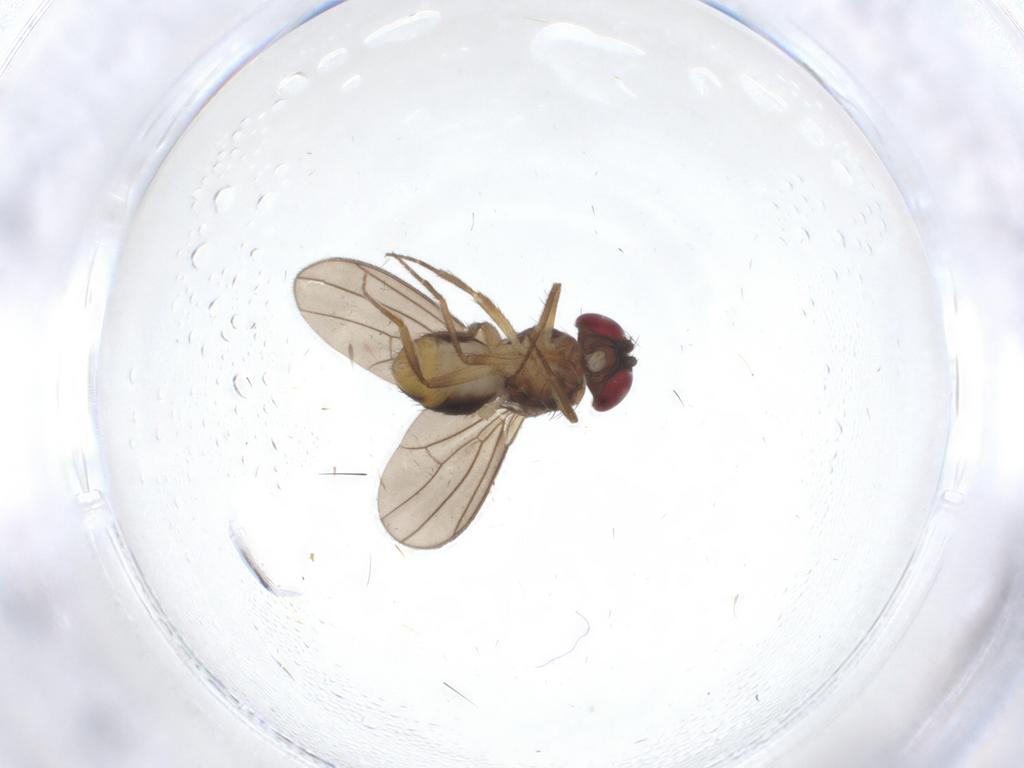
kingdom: Animalia
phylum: Arthropoda
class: Insecta
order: Diptera
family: Drosophilidae
